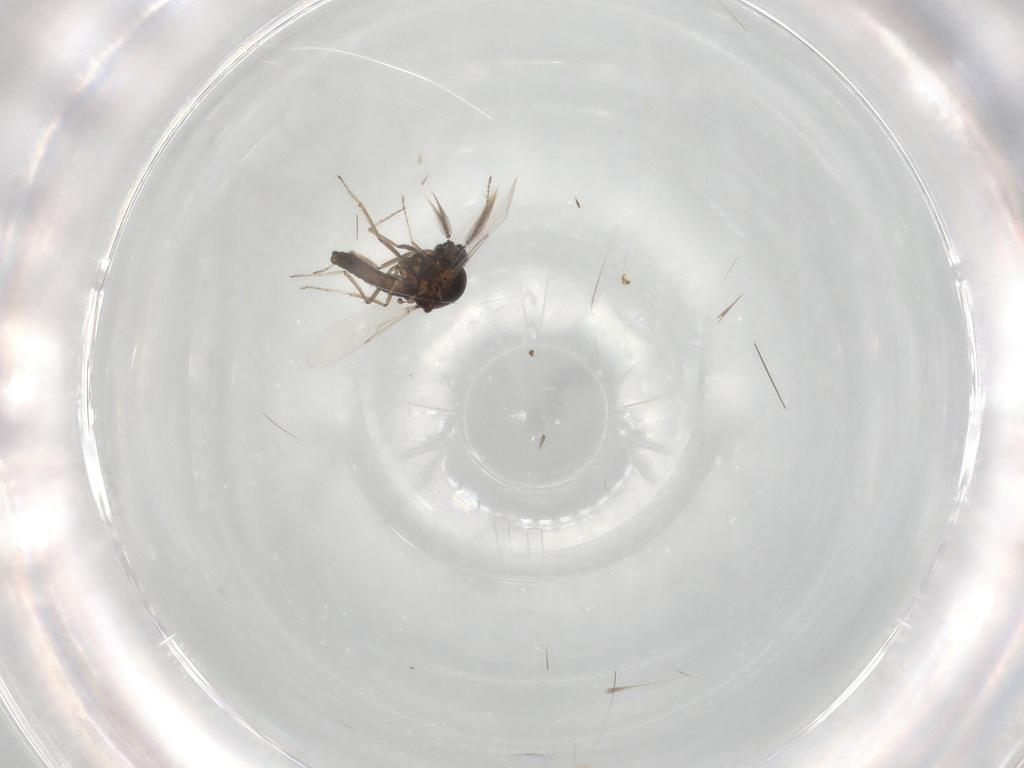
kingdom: Animalia
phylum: Arthropoda
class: Insecta
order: Diptera
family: Ceratopogonidae
